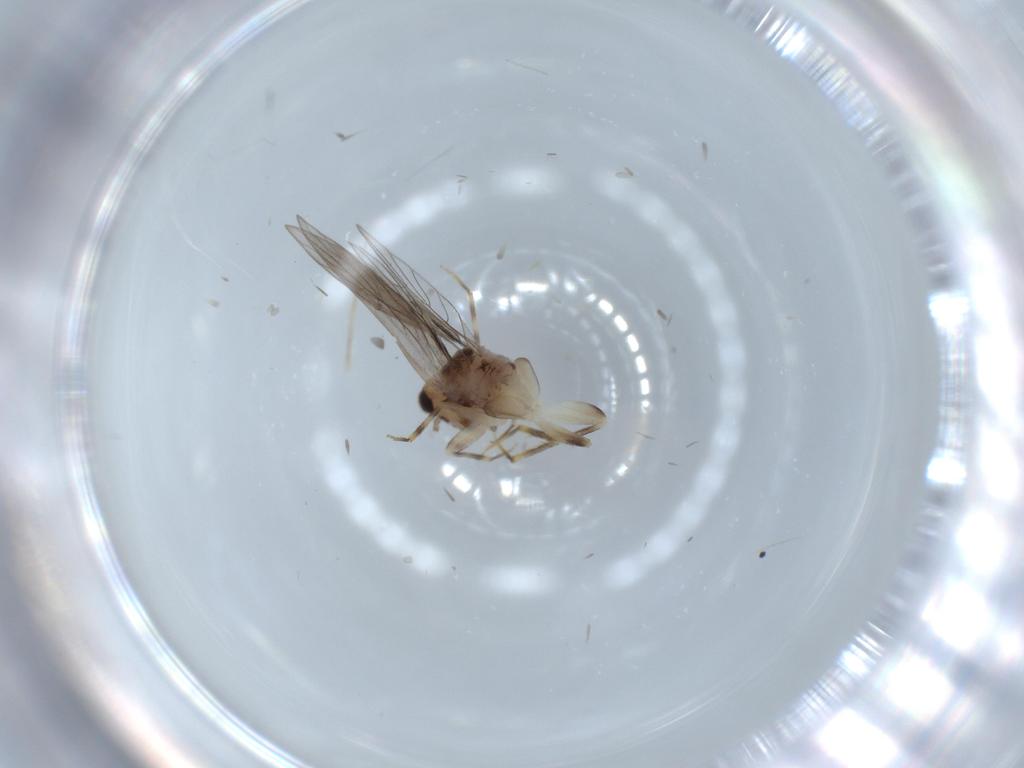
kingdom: Animalia
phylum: Arthropoda
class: Insecta
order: Psocodea
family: Lepidopsocidae
